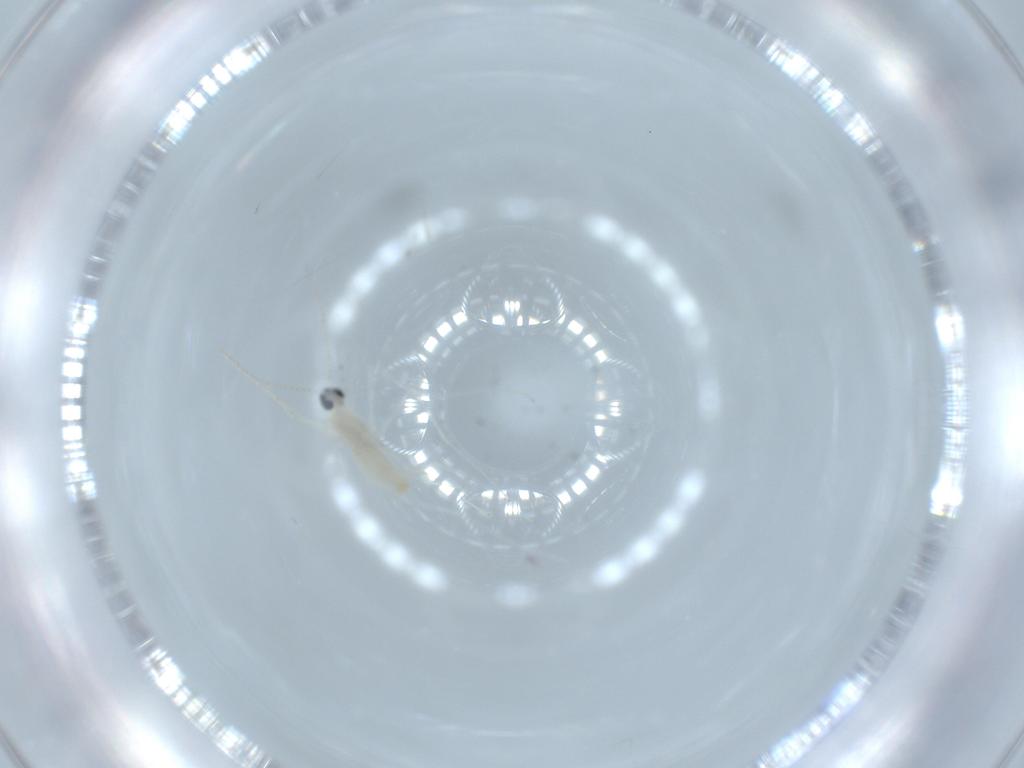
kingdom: Animalia
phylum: Arthropoda
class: Insecta
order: Diptera
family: Cecidomyiidae
